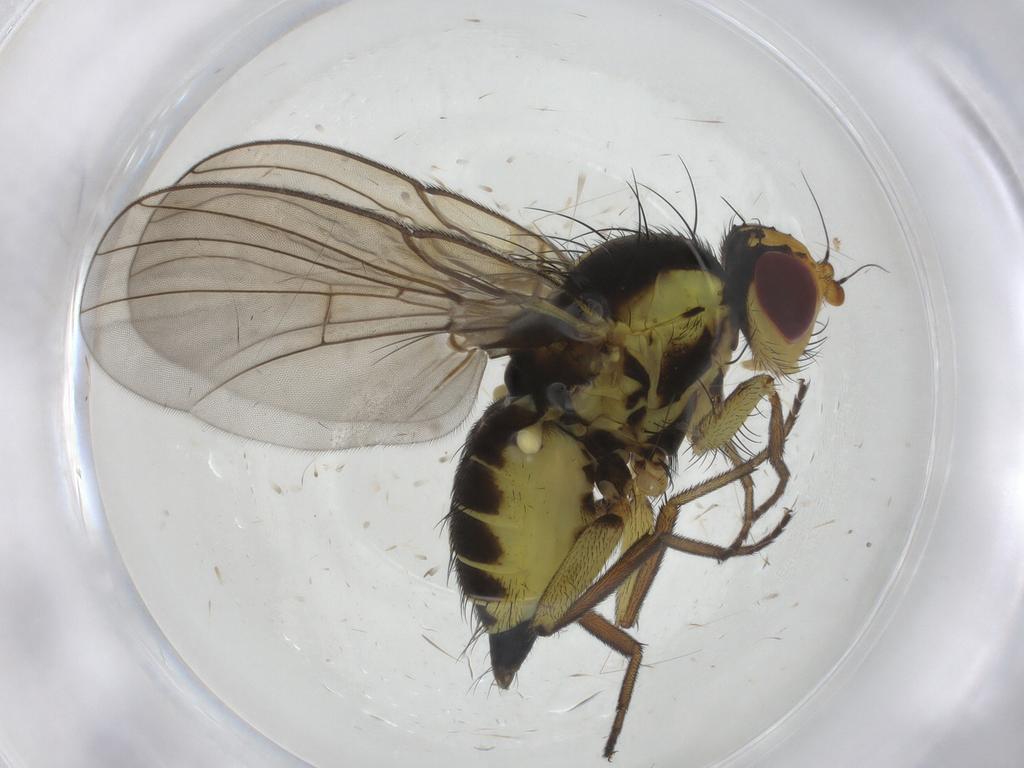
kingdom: Animalia
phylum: Arthropoda
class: Insecta
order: Diptera
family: Agromyzidae
